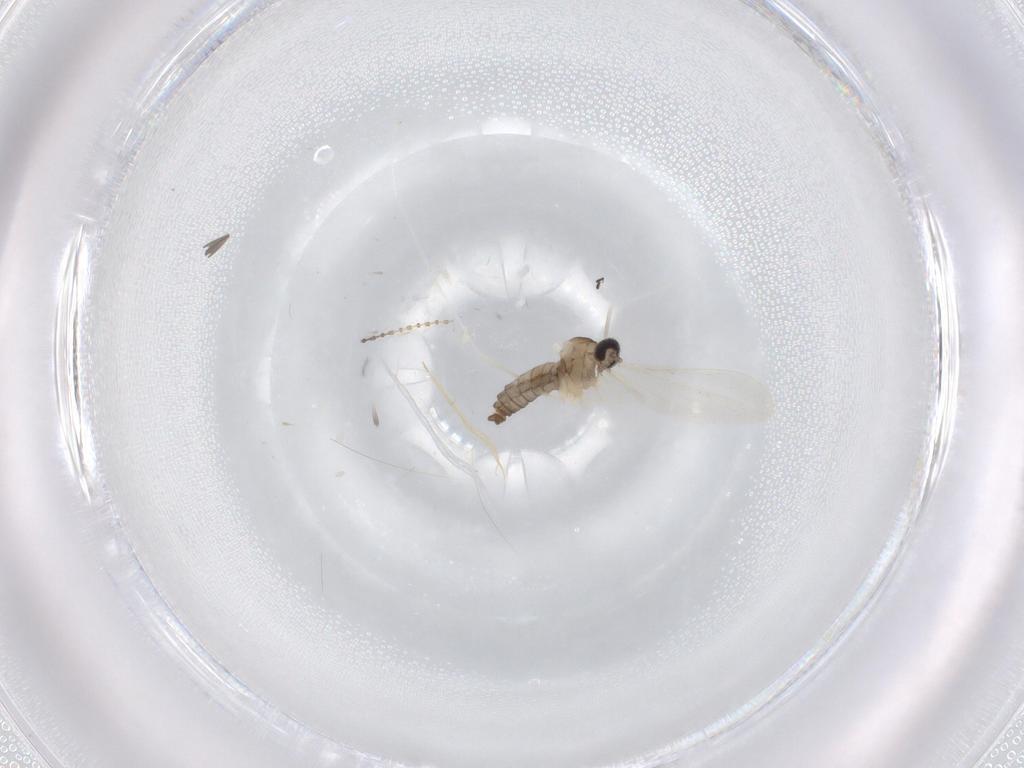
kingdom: Animalia
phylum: Arthropoda
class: Insecta
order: Diptera
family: Cecidomyiidae
